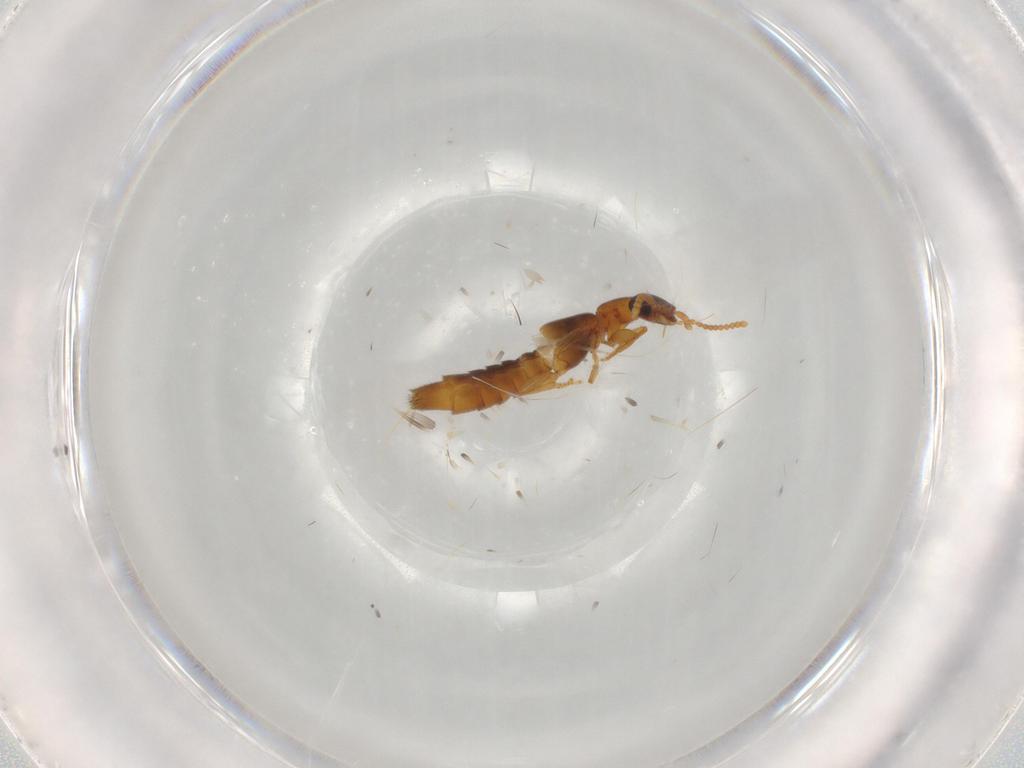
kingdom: Animalia
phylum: Arthropoda
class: Insecta
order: Coleoptera
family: Staphylinidae
